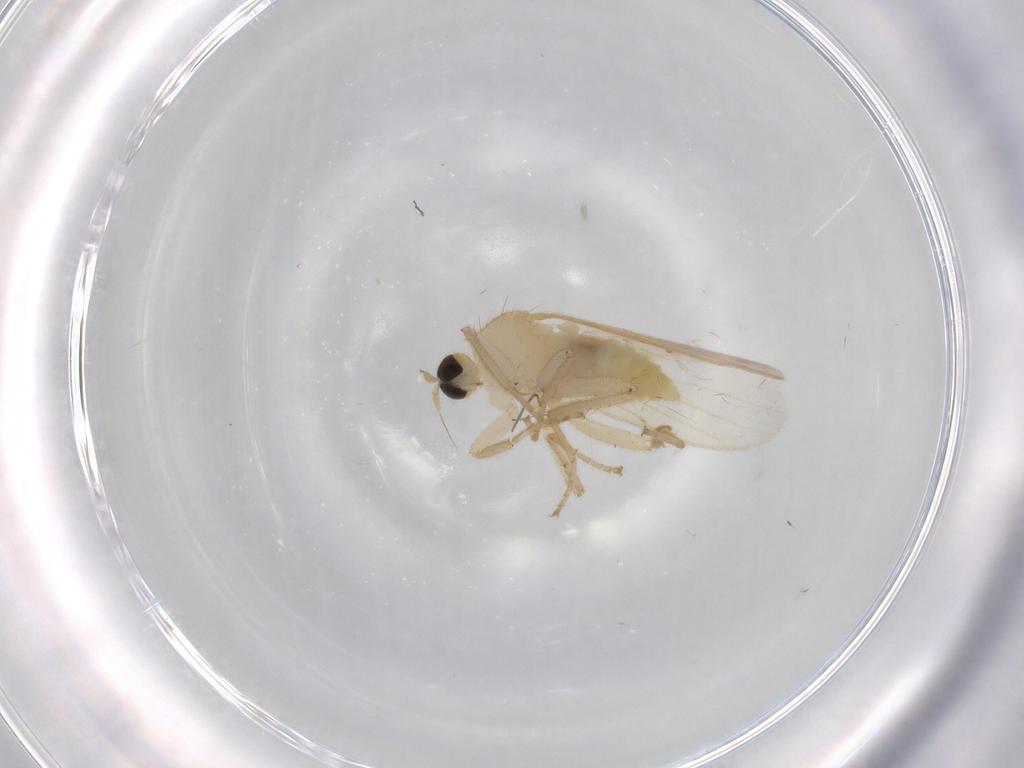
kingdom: Animalia
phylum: Arthropoda
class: Insecta
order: Diptera
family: Hybotidae
